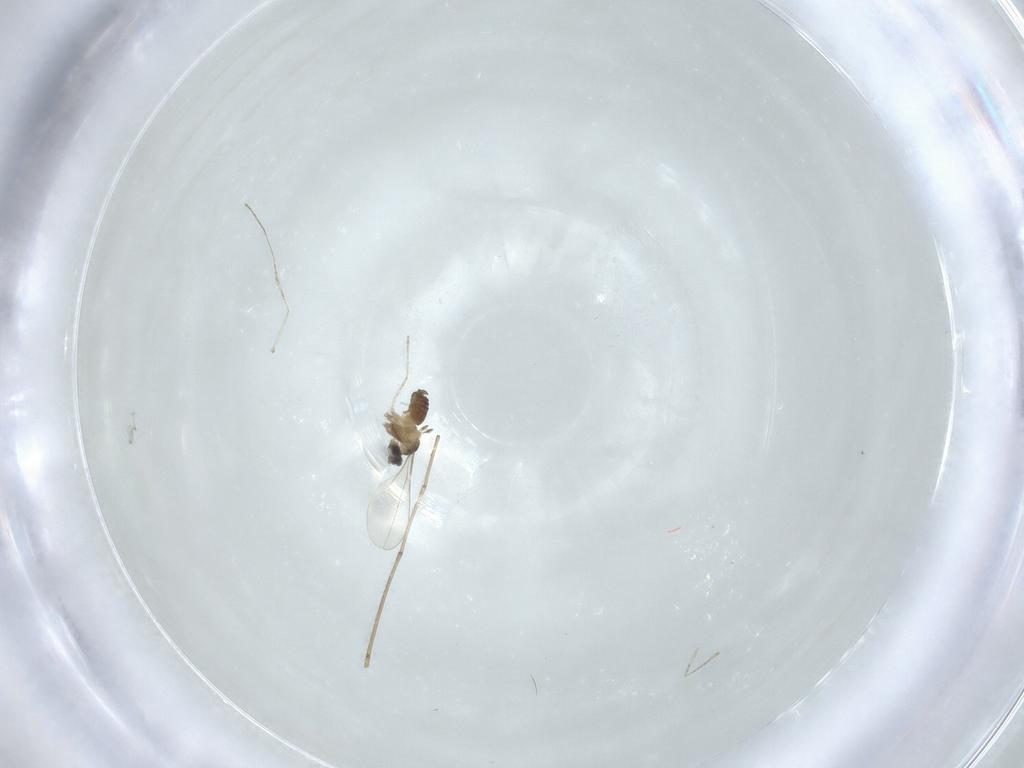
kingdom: Animalia
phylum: Arthropoda
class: Insecta
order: Diptera
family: Cecidomyiidae
